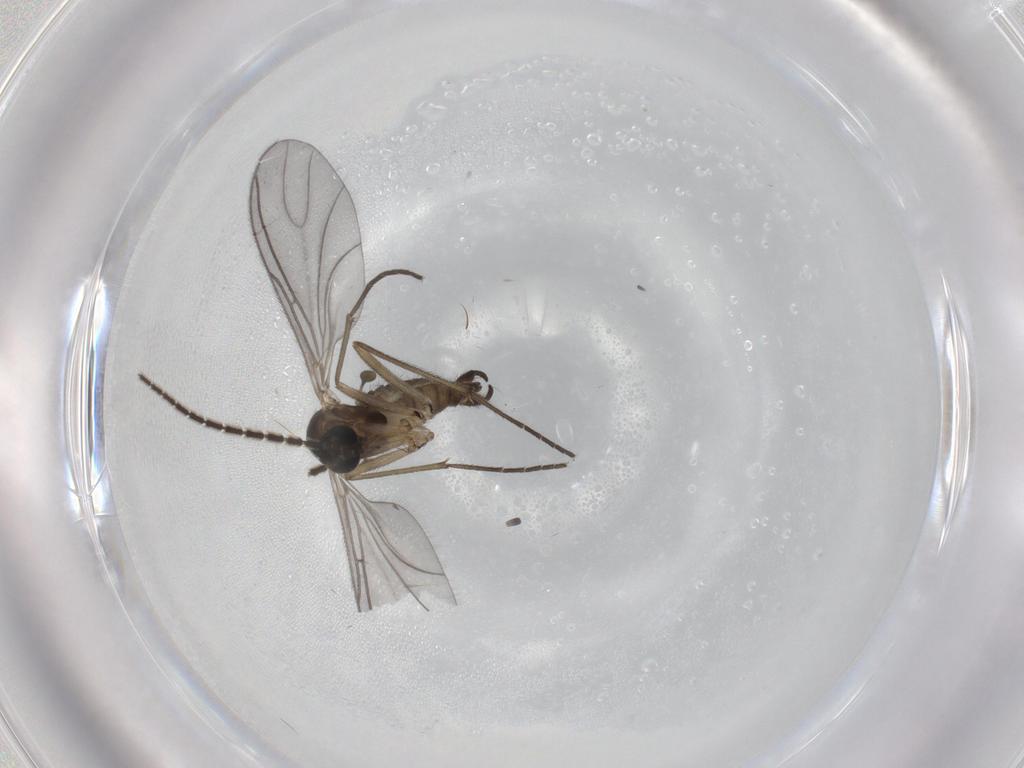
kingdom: Animalia
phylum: Arthropoda
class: Insecta
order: Diptera
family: Sciaridae
